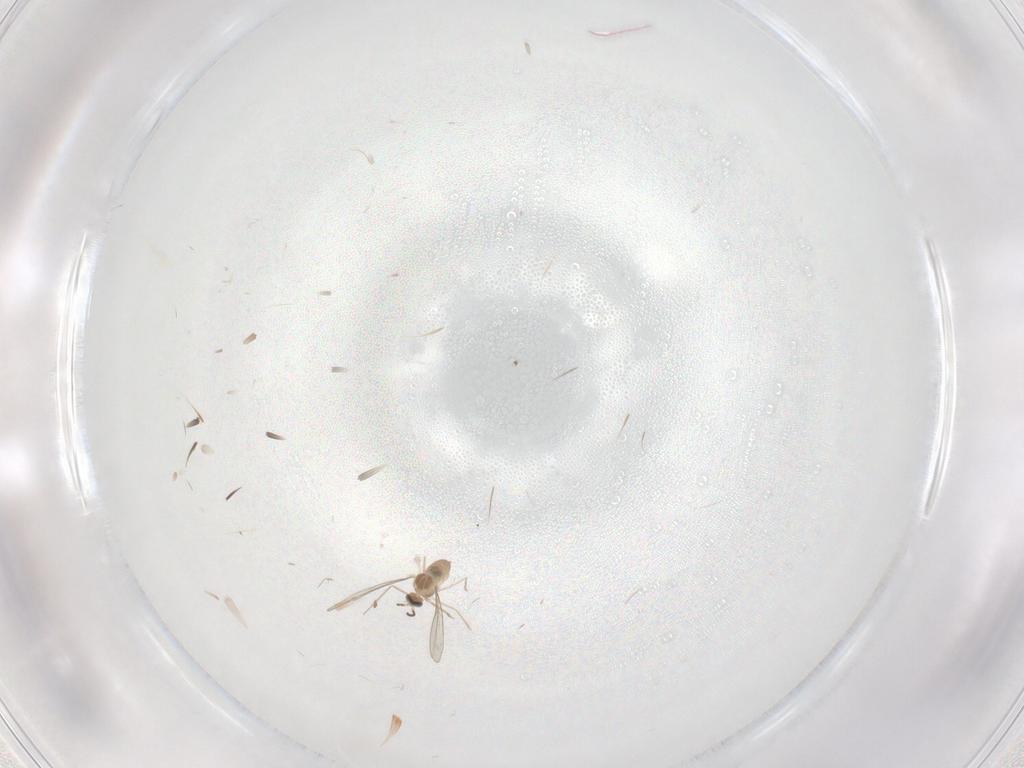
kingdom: Animalia
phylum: Arthropoda
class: Insecta
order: Diptera
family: Cecidomyiidae
